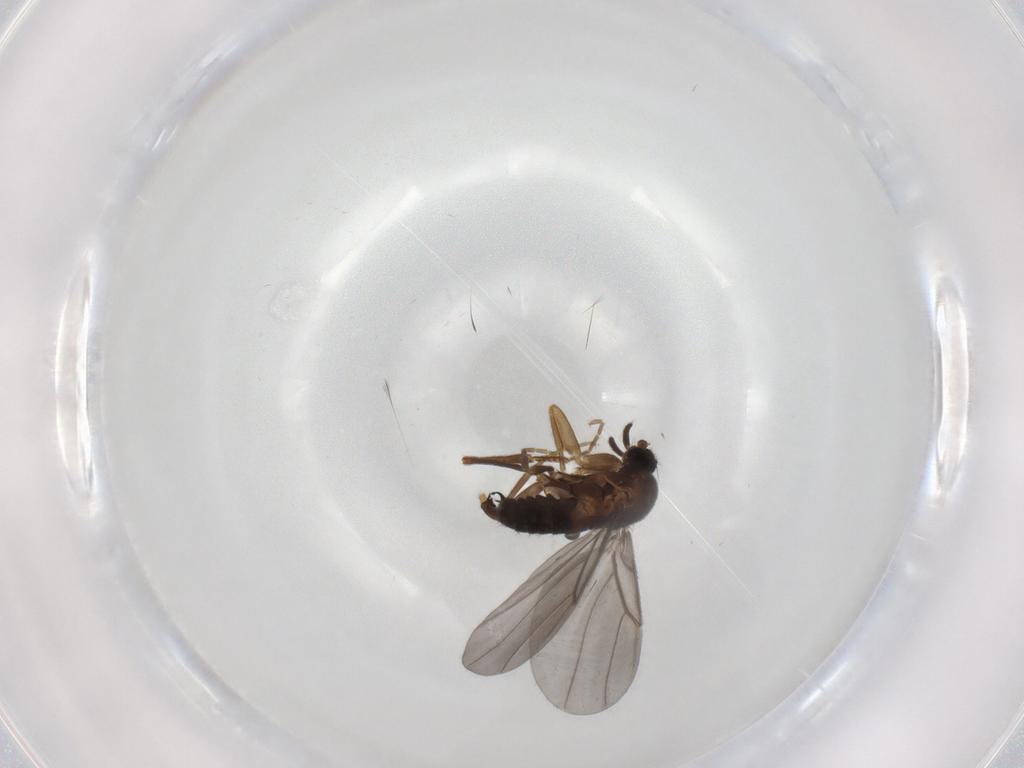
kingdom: Animalia
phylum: Arthropoda
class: Insecta
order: Diptera
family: Phoridae
